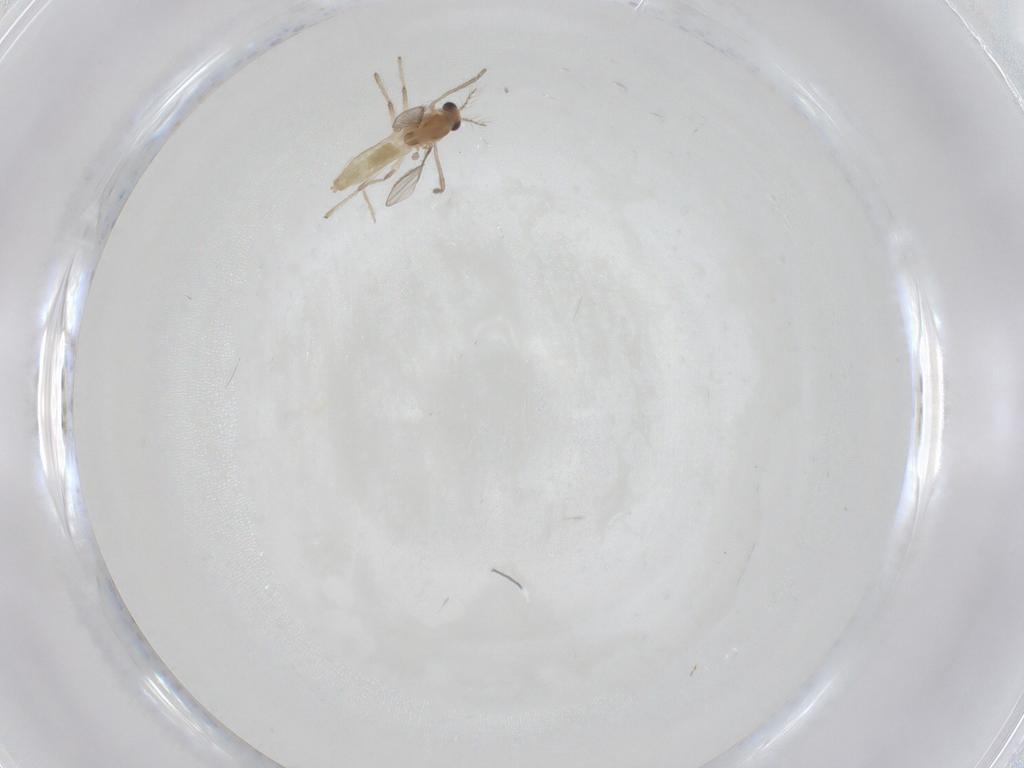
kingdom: Animalia
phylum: Arthropoda
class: Insecta
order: Diptera
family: Chironomidae
